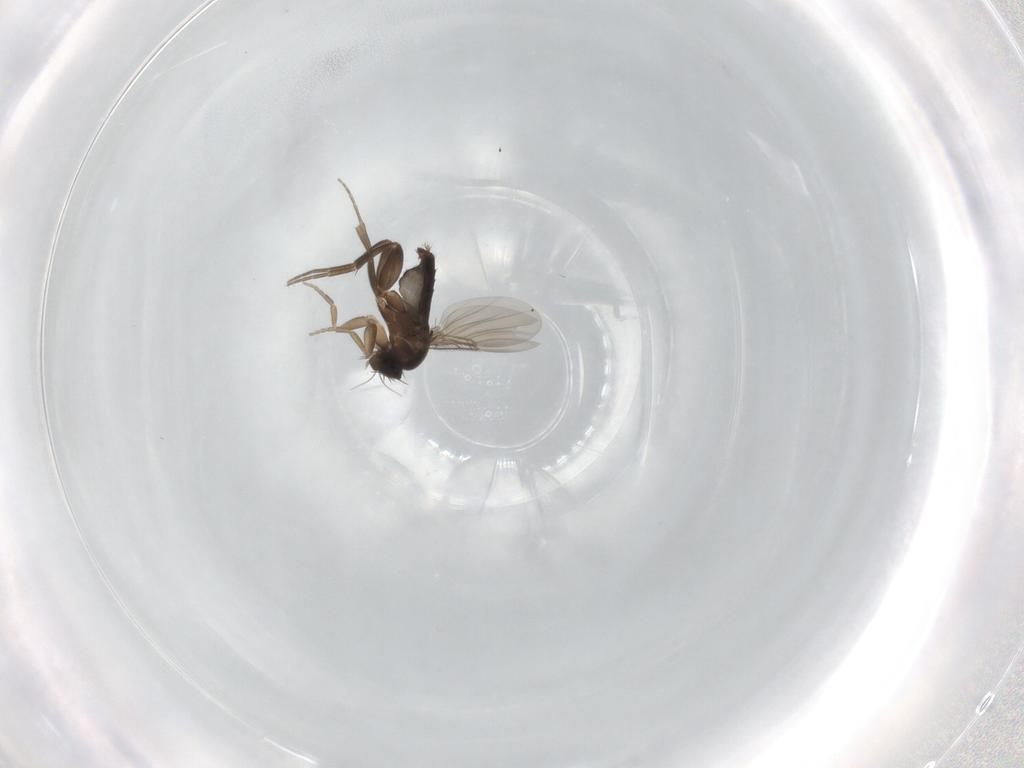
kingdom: Animalia
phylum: Arthropoda
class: Insecta
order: Diptera
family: Phoridae
